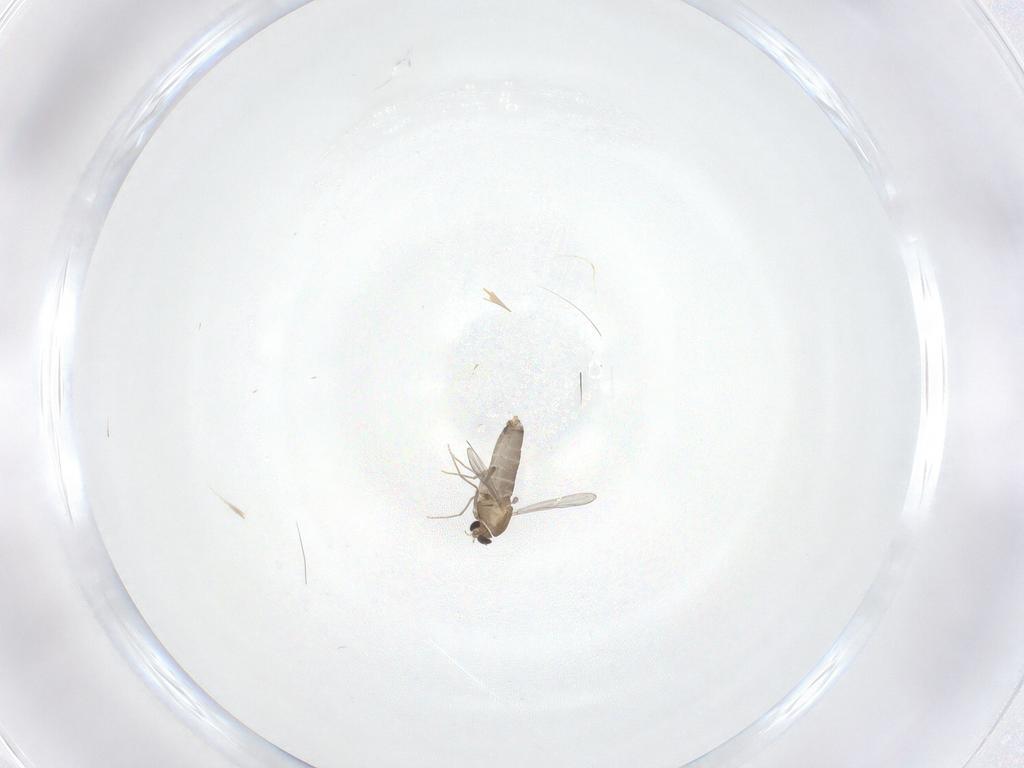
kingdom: Animalia
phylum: Arthropoda
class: Insecta
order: Diptera
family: Chironomidae
